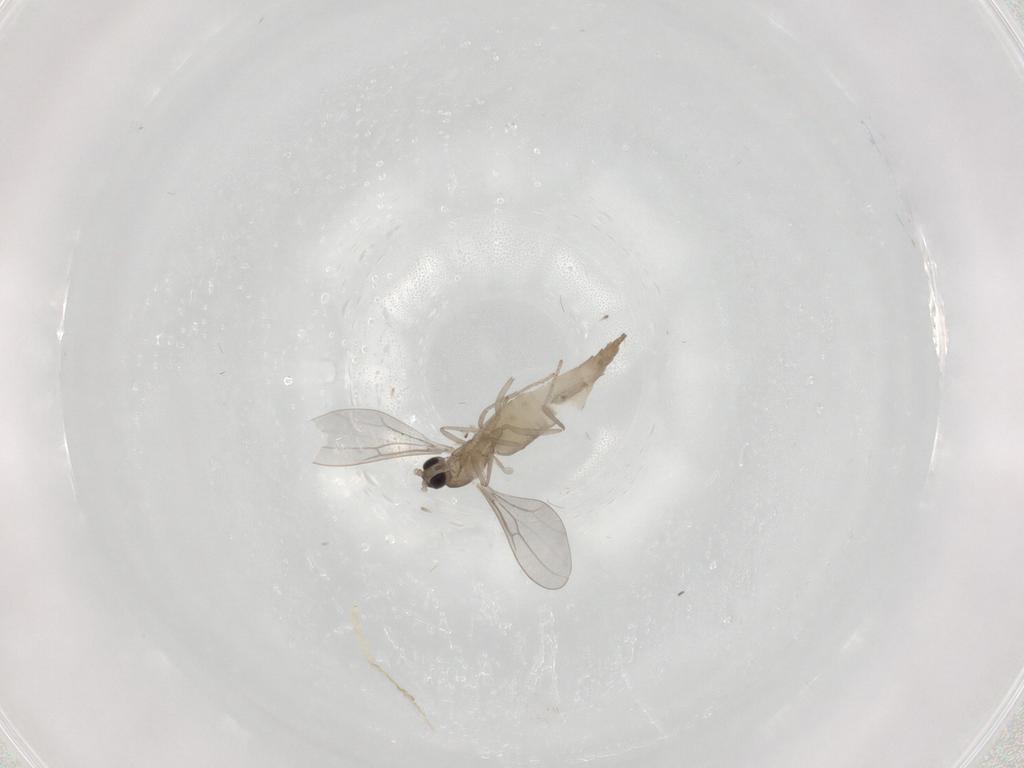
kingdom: Animalia
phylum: Arthropoda
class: Insecta
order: Diptera
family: Cecidomyiidae
